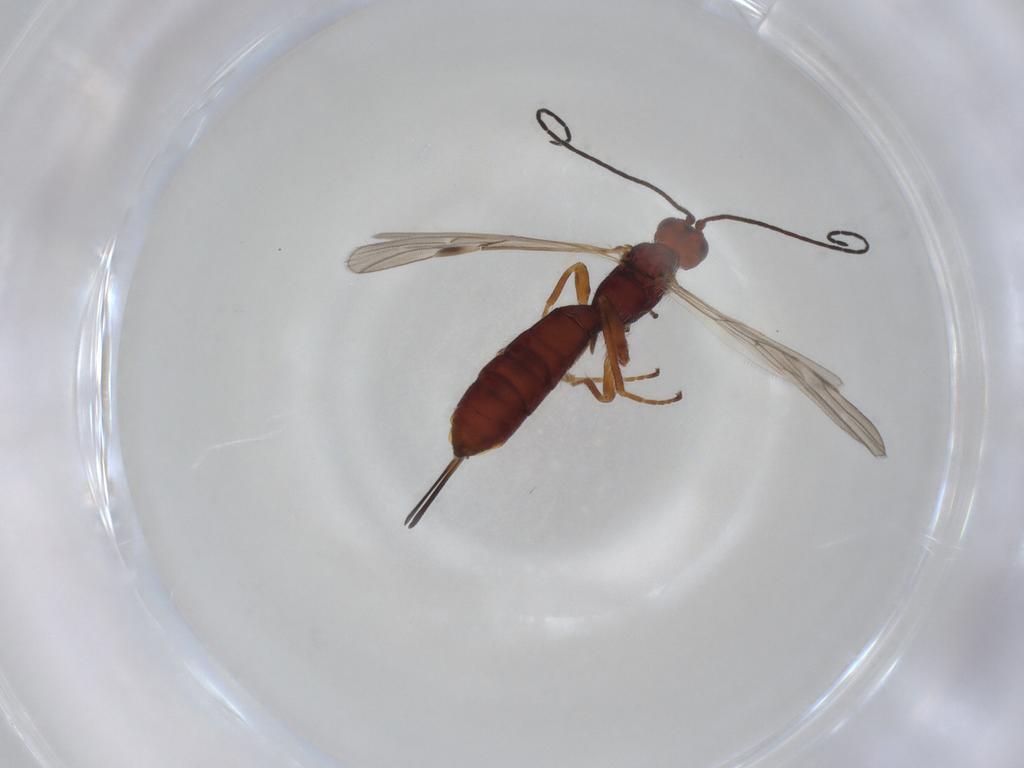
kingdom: Animalia
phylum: Arthropoda
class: Insecta
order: Hymenoptera
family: Braconidae
